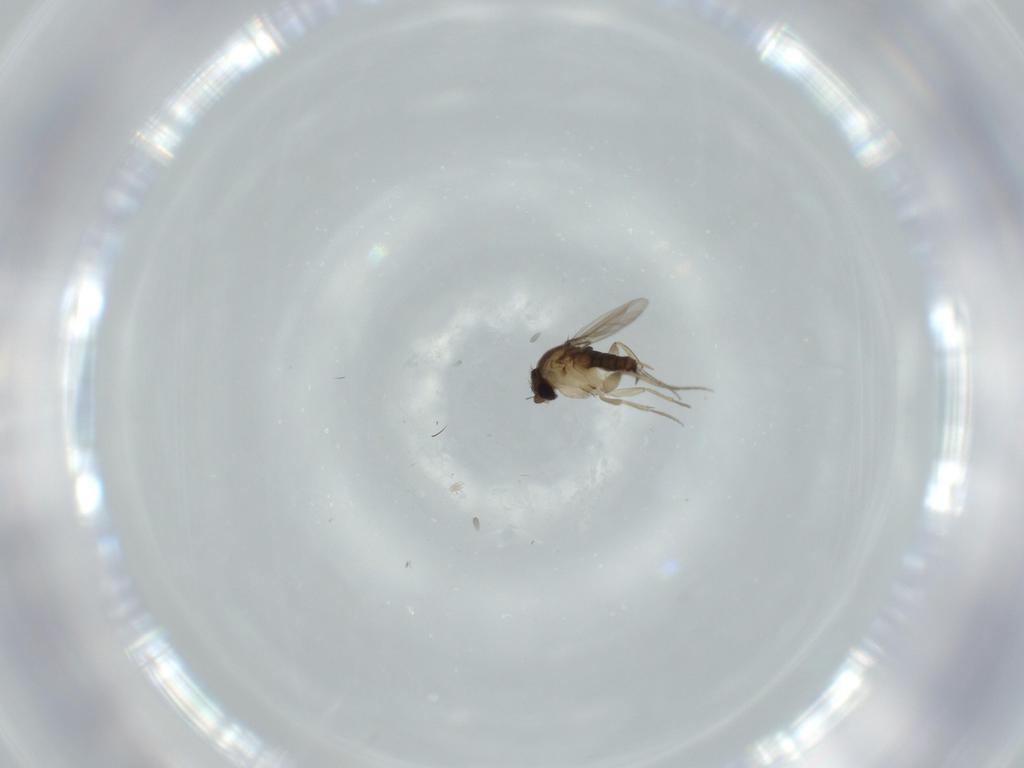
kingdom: Animalia
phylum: Arthropoda
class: Insecta
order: Diptera
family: Phoridae
